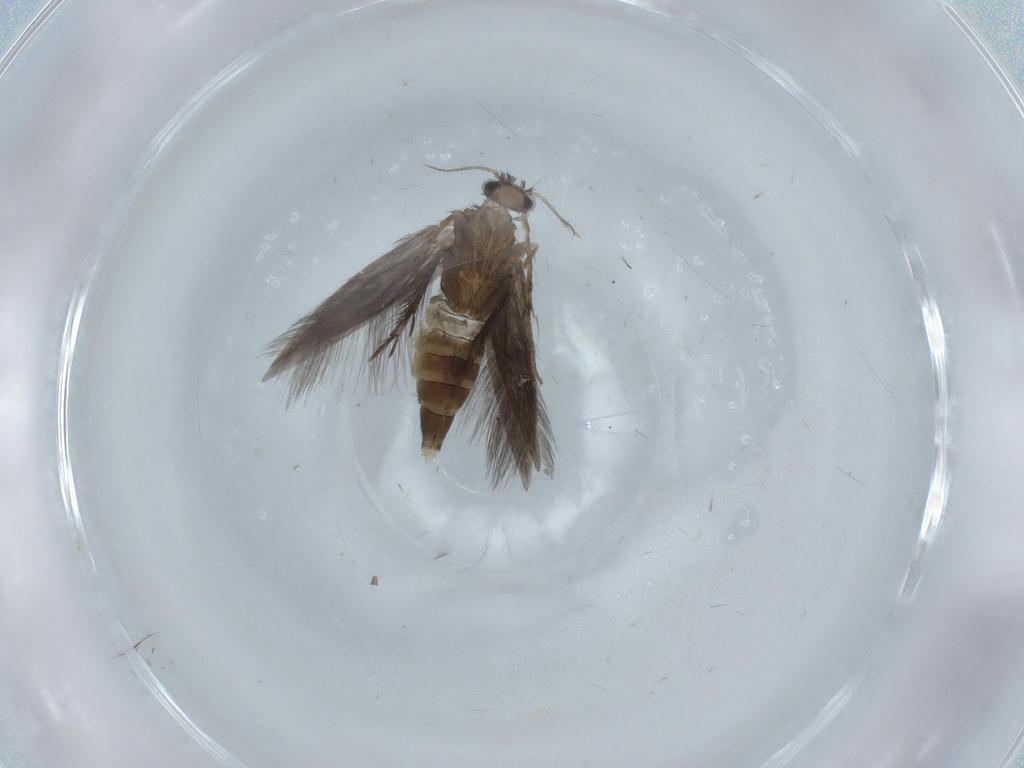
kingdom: Animalia
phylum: Arthropoda
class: Insecta
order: Trichoptera
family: Hydroptilidae
